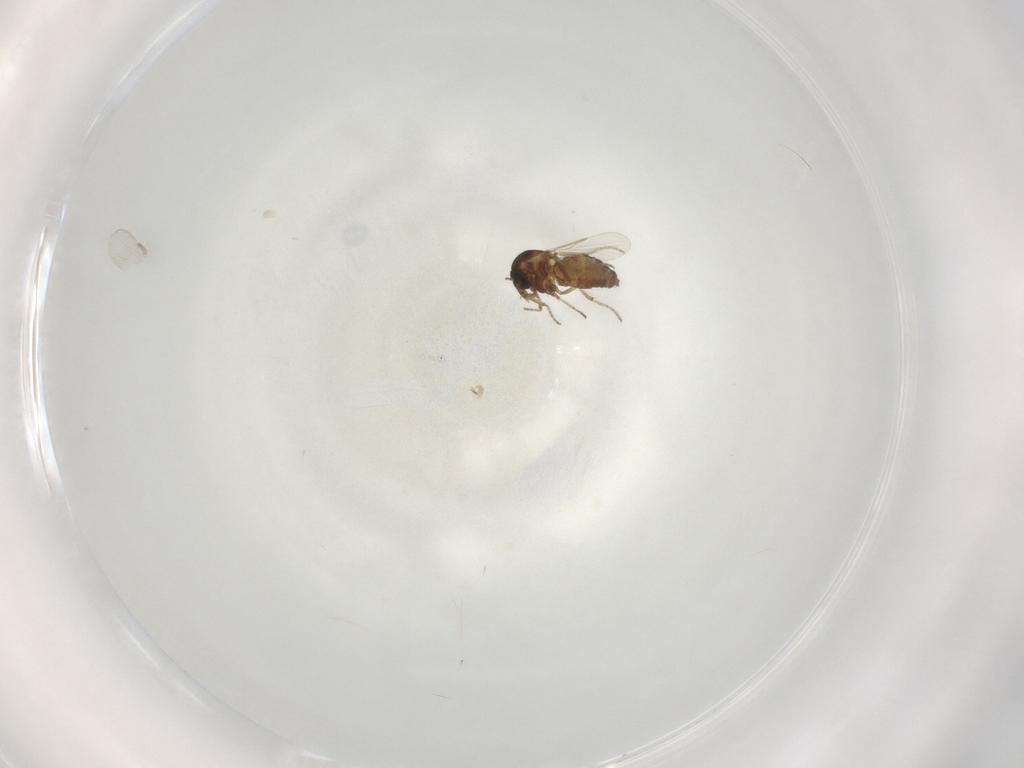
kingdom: Animalia
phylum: Arthropoda
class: Insecta
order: Diptera
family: Ceratopogonidae
